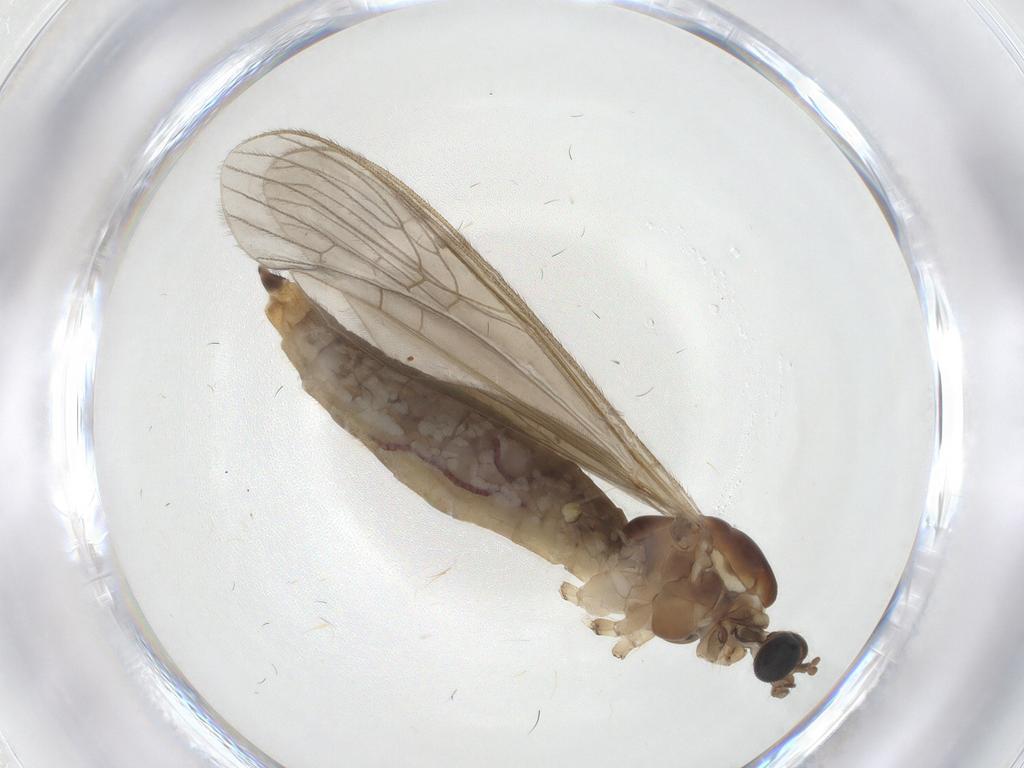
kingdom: Animalia
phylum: Arthropoda
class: Insecta
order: Diptera
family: Limoniidae
